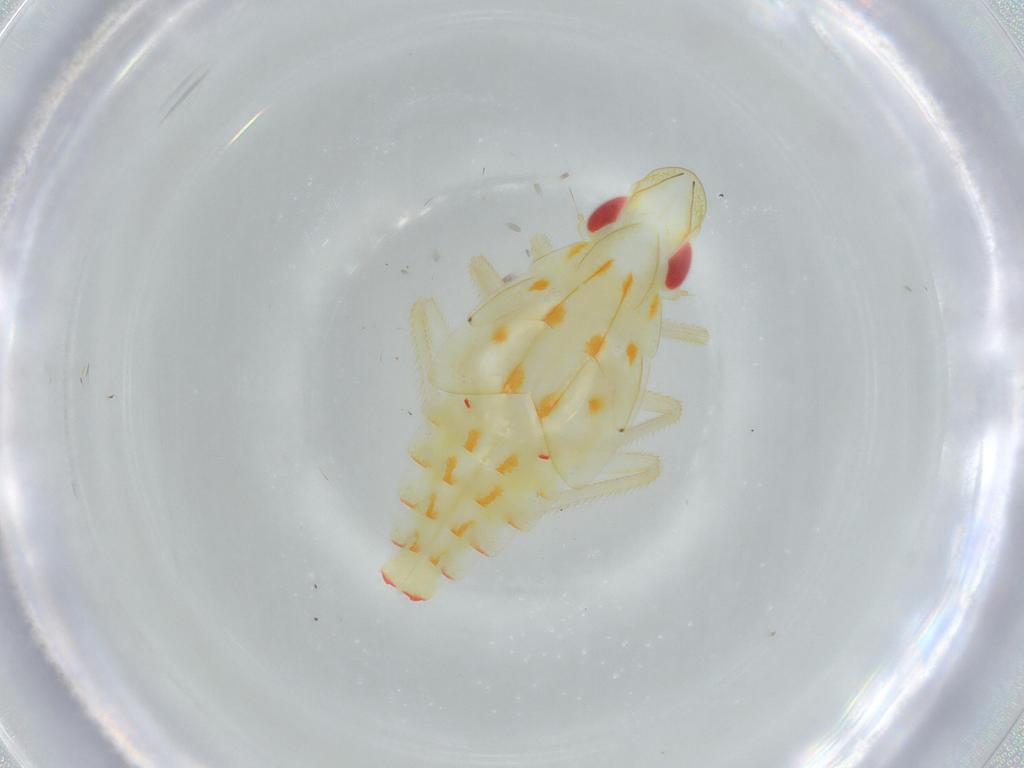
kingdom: Animalia
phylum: Arthropoda
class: Insecta
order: Hemiptera
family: Tropiduchidae
